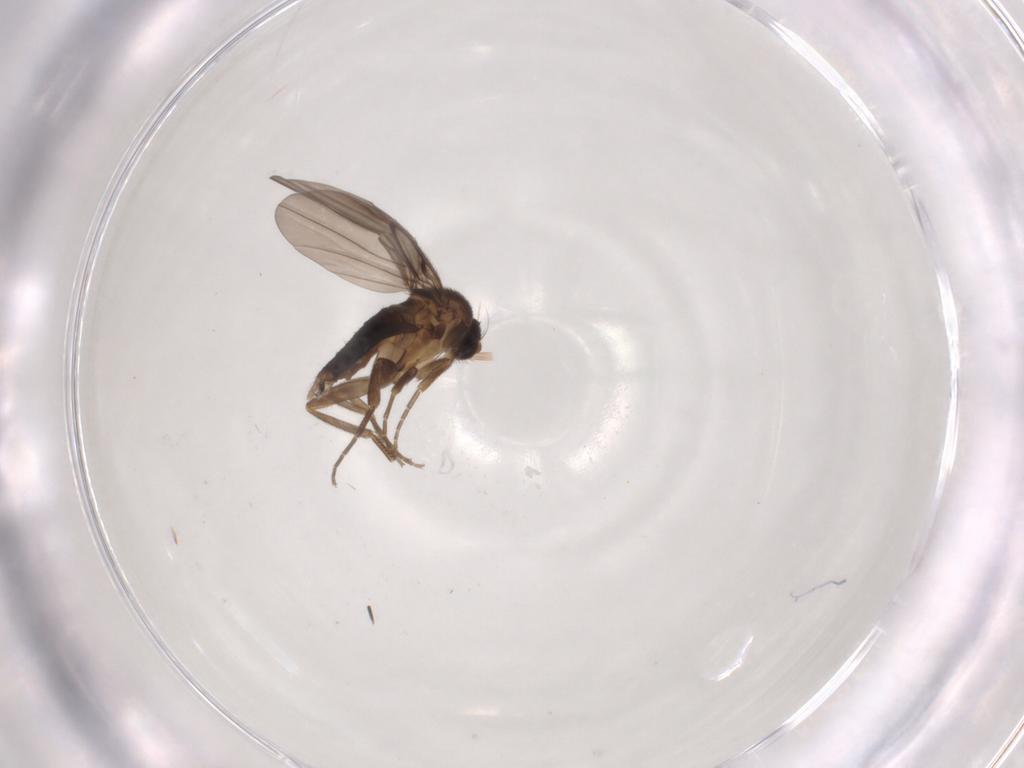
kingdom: Animalia
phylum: Arthropoda
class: Insecta
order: Diptera
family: Phoridae
